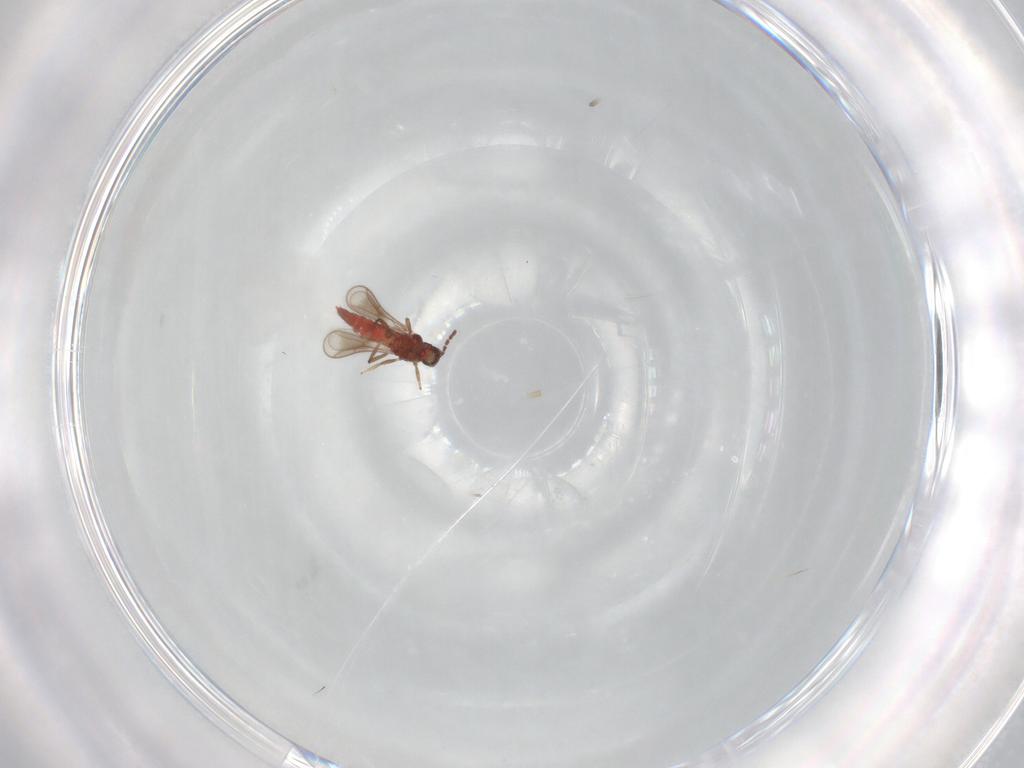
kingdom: Animalia
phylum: Arthropoda
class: Insecta
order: Thysanoptera
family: Aeolothripidae
